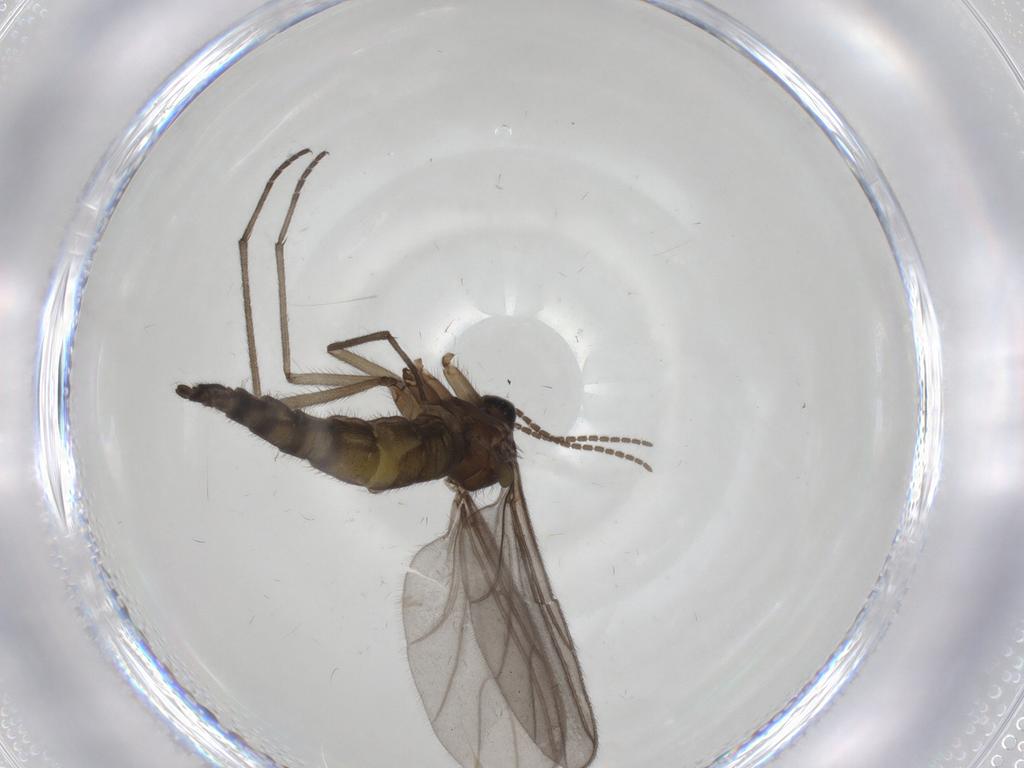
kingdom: Animalia
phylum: Arthropoda
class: Insecta
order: Diptera
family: Sciaridae
